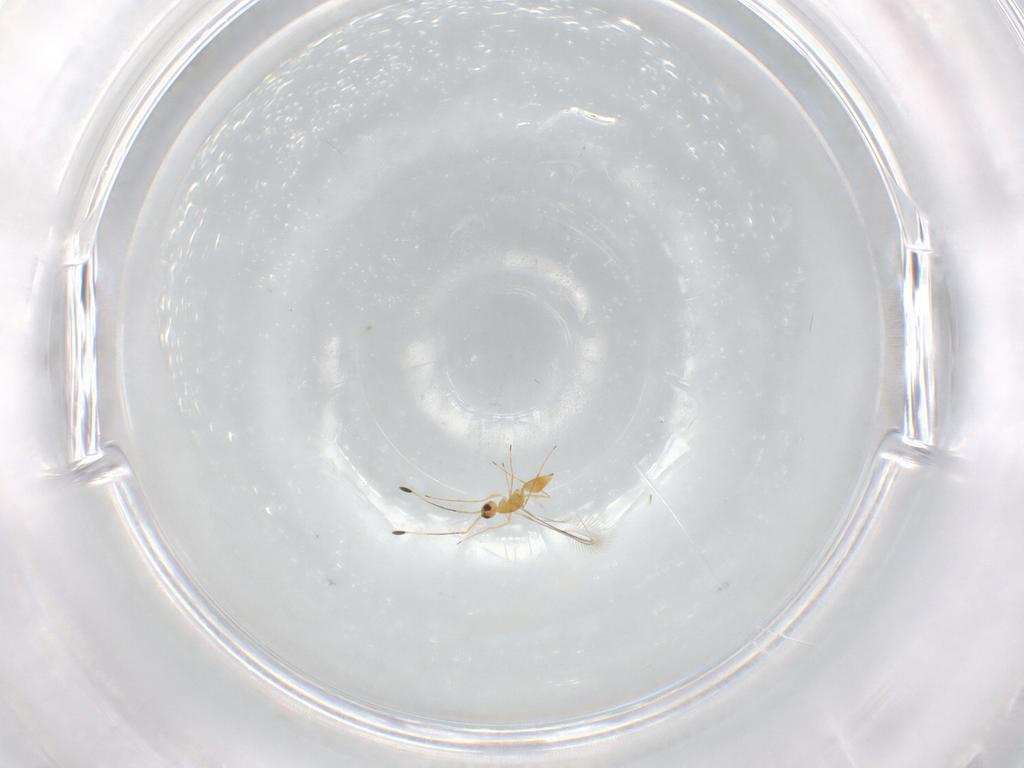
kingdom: Animalia
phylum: Arthropoda
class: Insecta
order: Hymenoptera
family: Mymaridae
